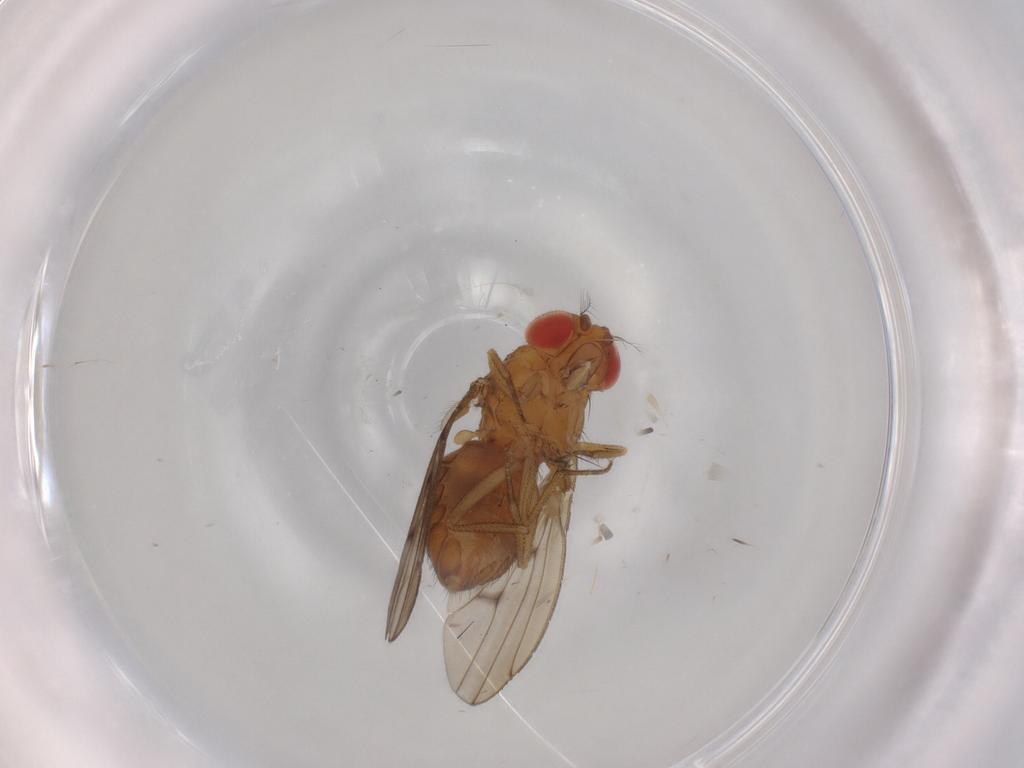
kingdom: Animalia
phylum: Arthropoda
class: Insecta
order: Diptera
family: Drosophilidae
